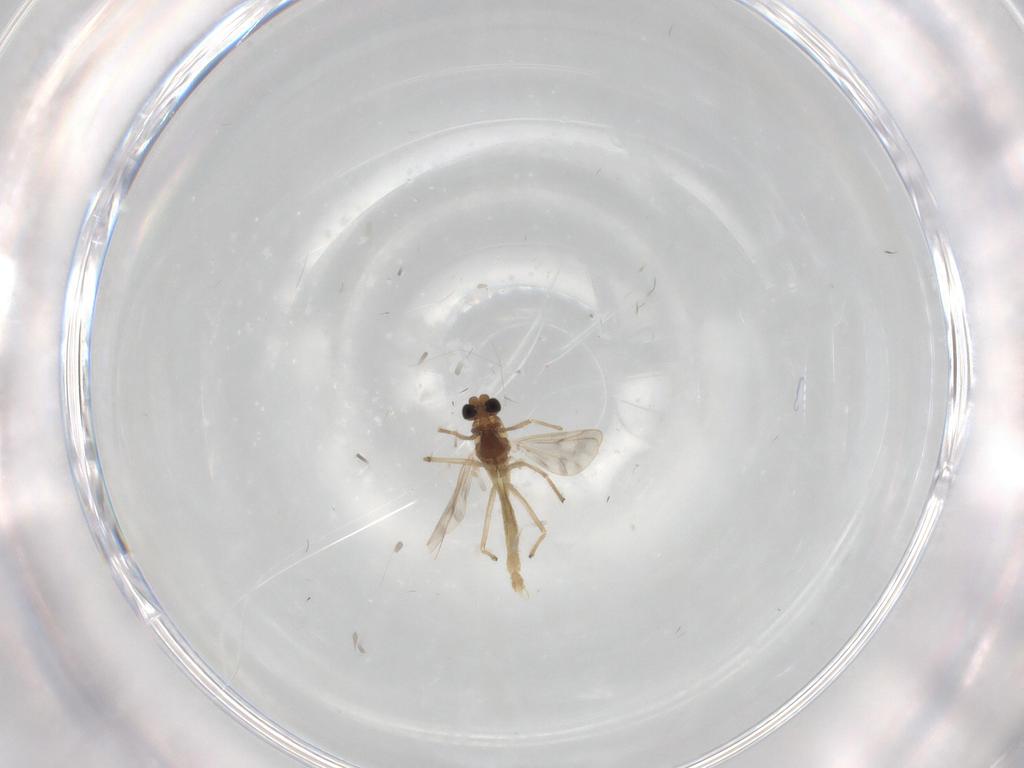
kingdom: Animalia
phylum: Arthropoda
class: Insecta
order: Diptera
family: Chironomidae
